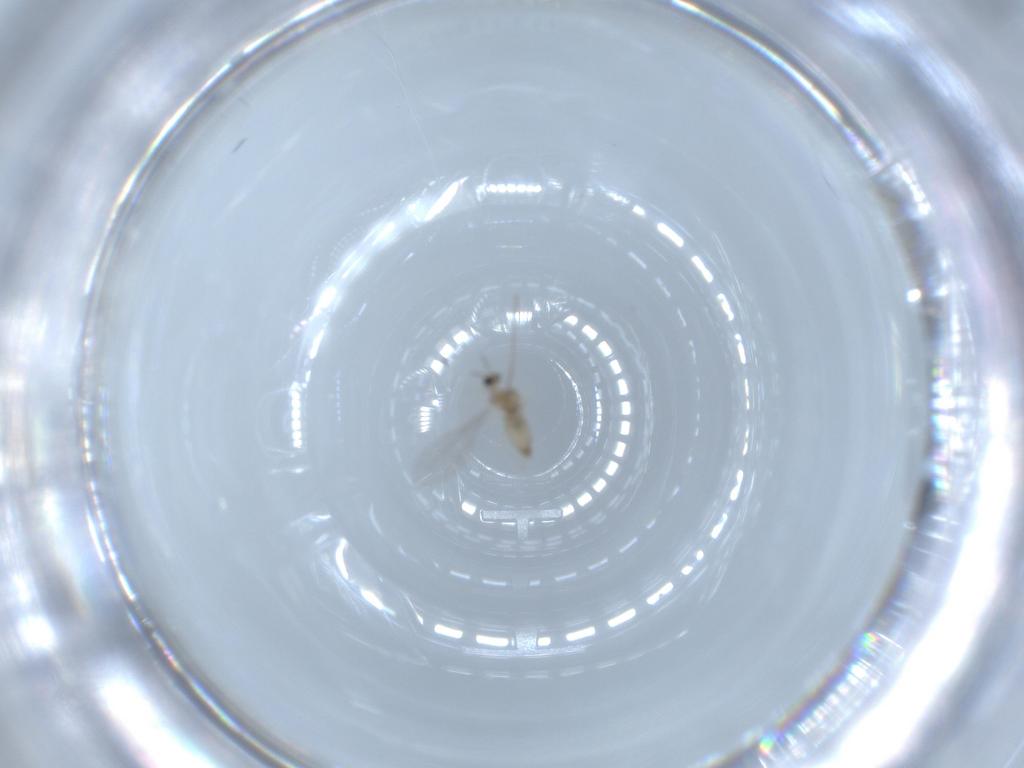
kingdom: Animalia
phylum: Arthropoda
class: Insecta
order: Diptera
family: Cecidomyiidae
